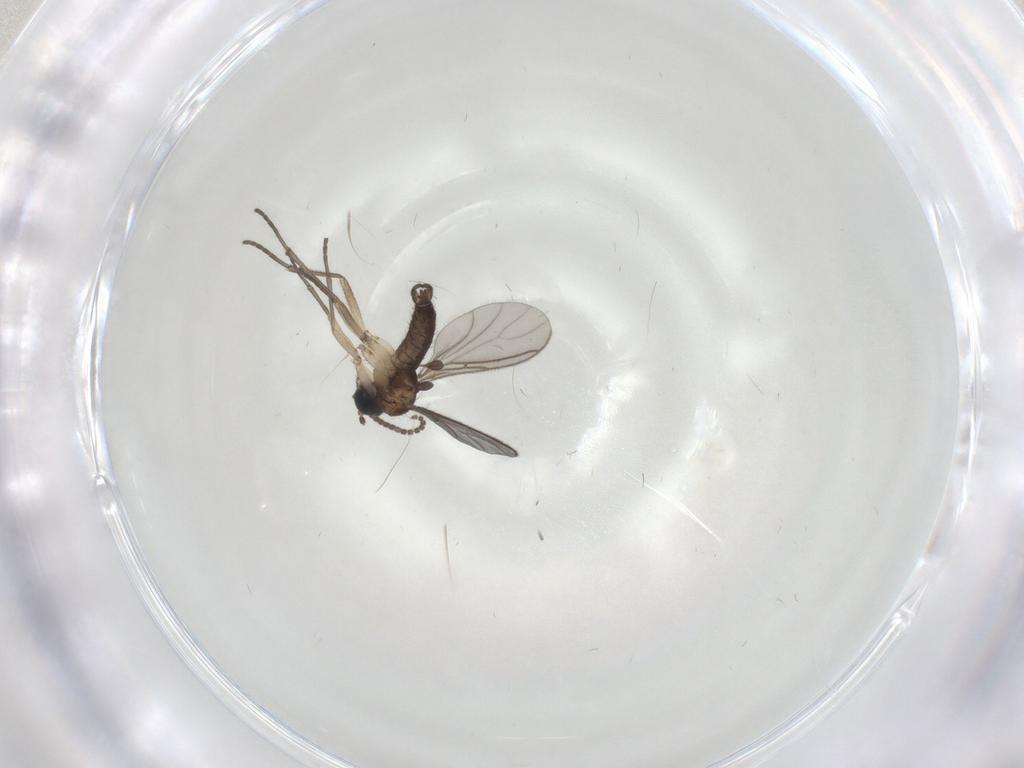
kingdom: Animalia
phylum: Arthropoda
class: Insecta
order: Diptera
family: Sciaridae
